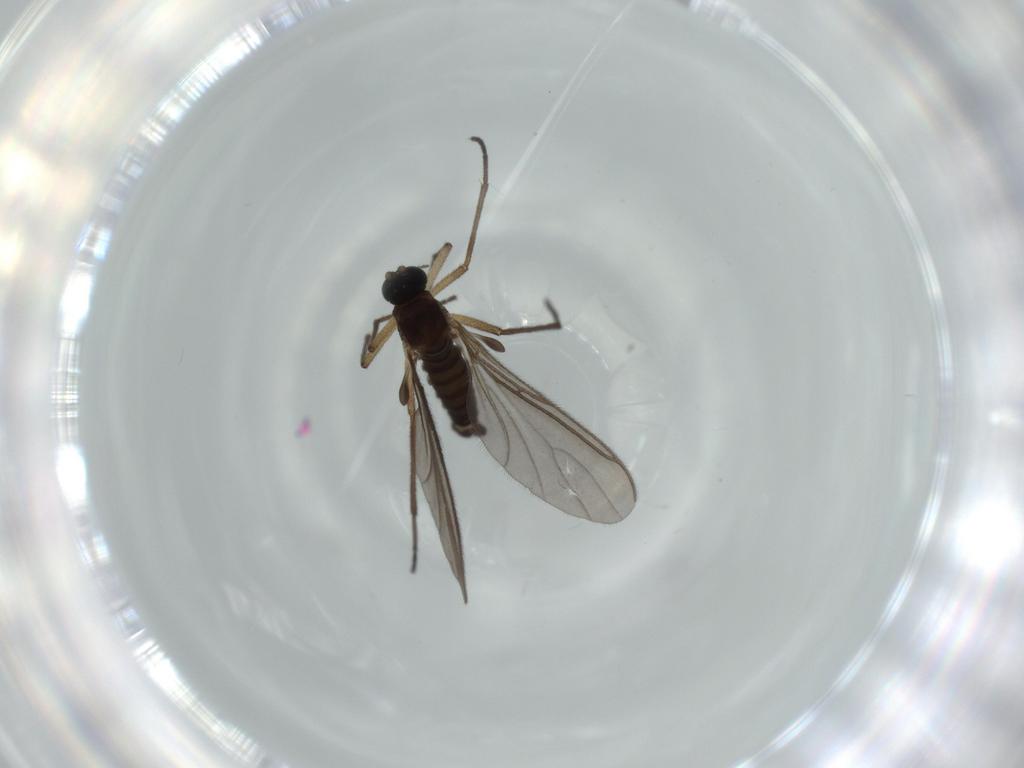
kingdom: Animalia
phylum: Arthropoda
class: Insecta
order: Diptera
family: Sciaridae
